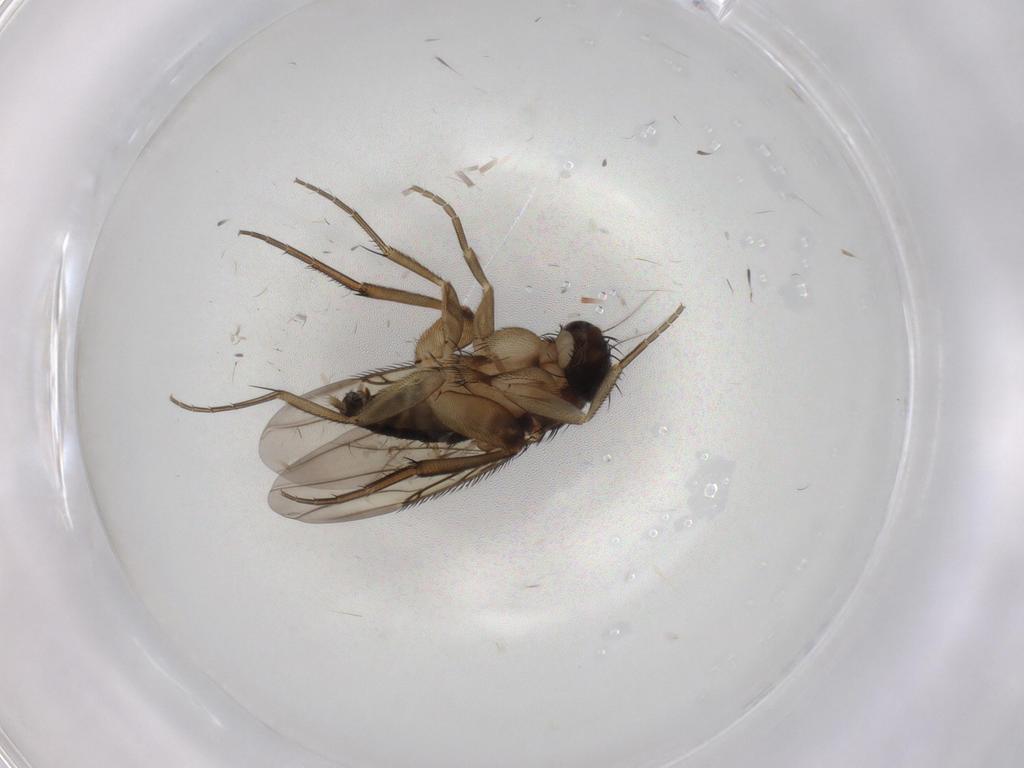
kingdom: Animalia
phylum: Arthropoda
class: Insecta
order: Diptera
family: Phoridae
